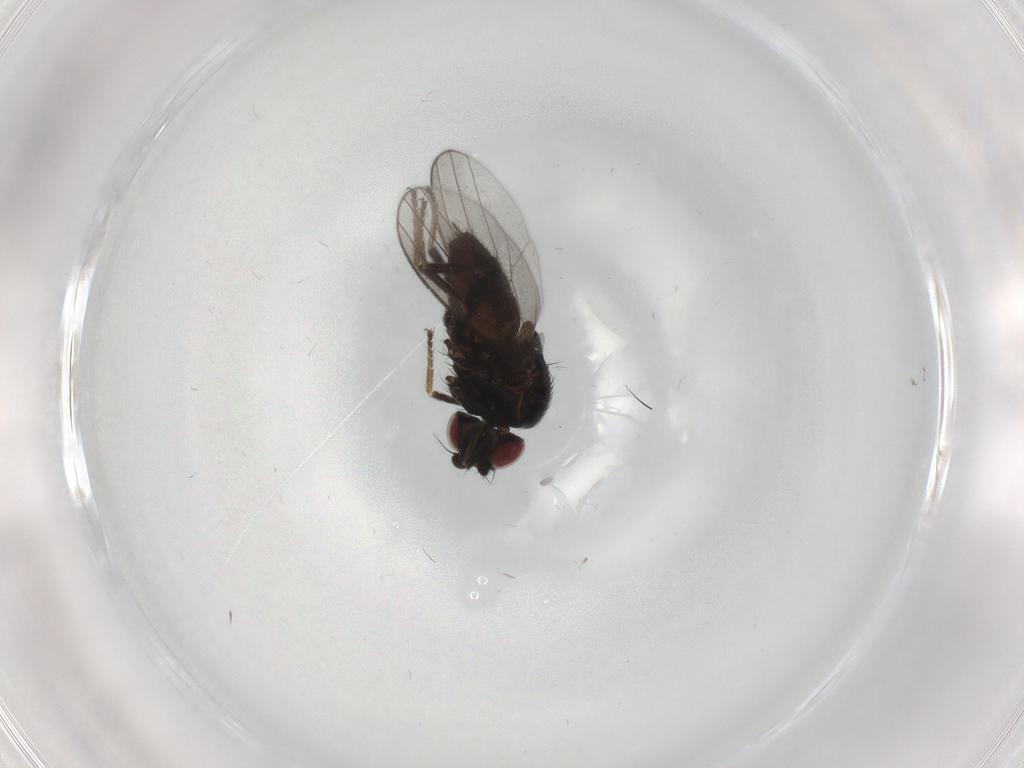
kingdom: Animalia
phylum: Arthropoda
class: Insecta
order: Diptera
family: Milichiidae
